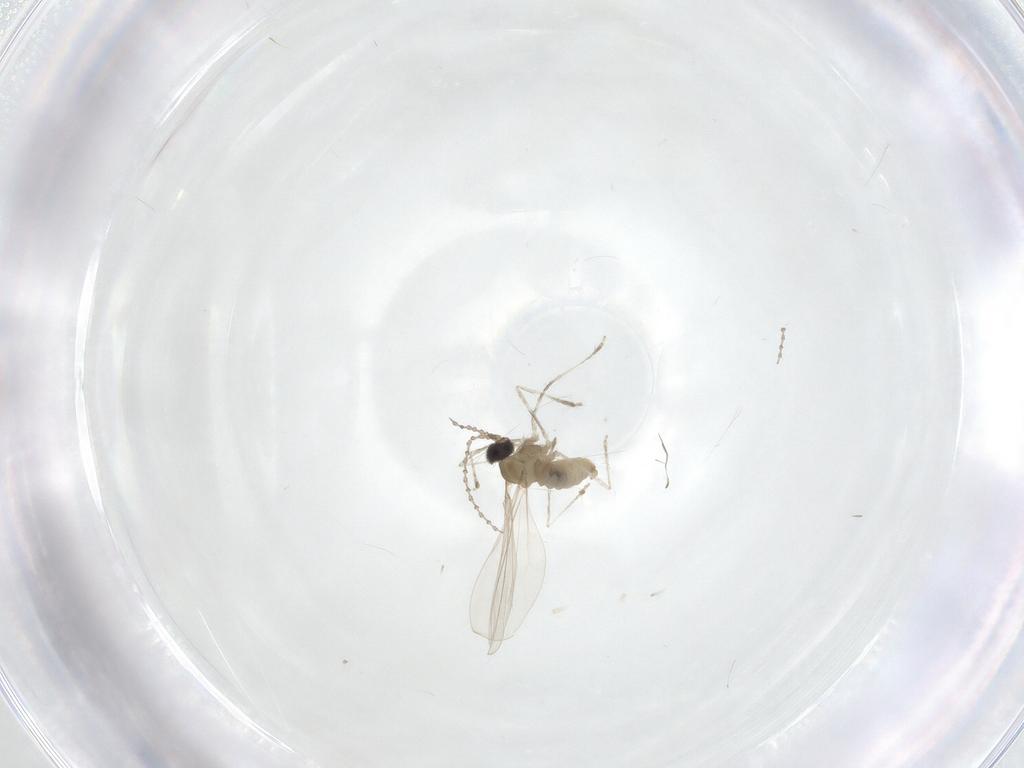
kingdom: Animalia
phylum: Arthropoda
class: Insecta
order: Diptera
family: Cecidomyiidae
